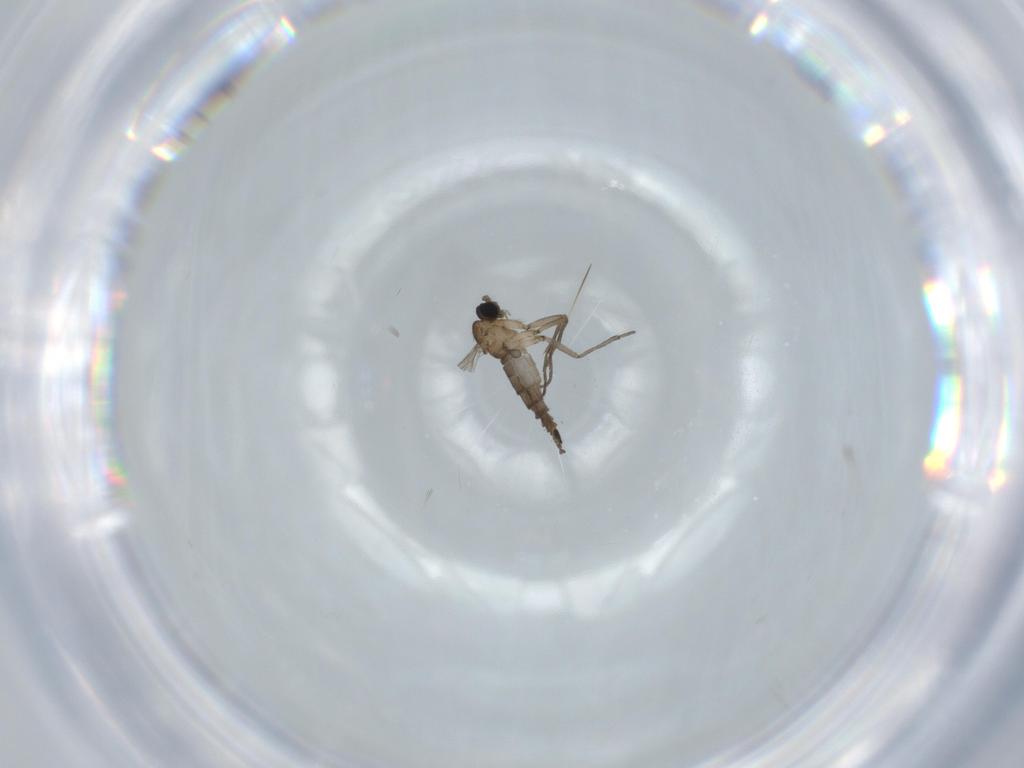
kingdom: Animalia
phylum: Arthropoda
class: Insecta
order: Diptera
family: Sciaridae
